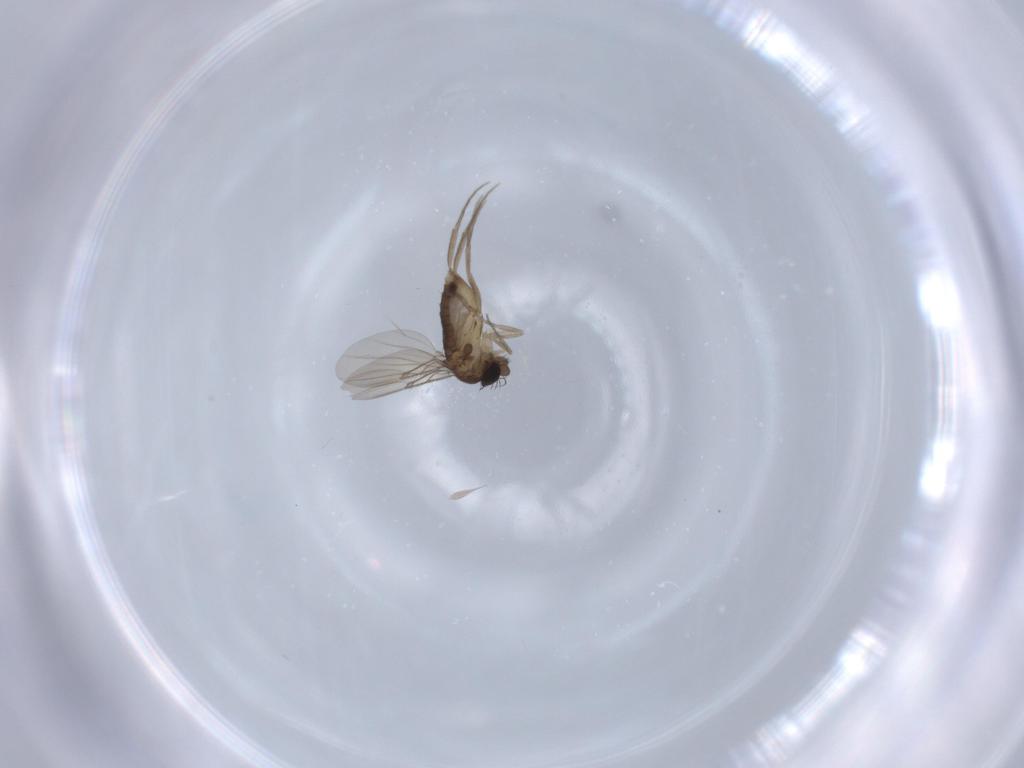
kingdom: Animalia
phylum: Arthropoda
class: Insecta
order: Diptera
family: Phoridae
